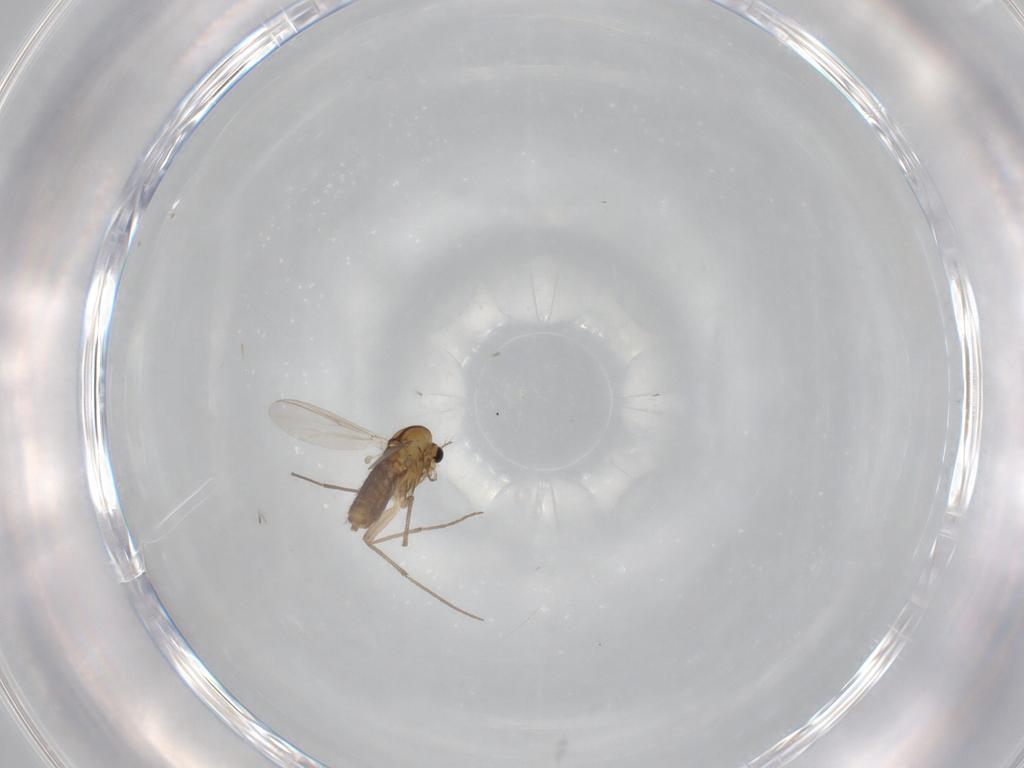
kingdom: Animalia
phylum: Arthropoda
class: Insecta
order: Diptera
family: Chironomidae
